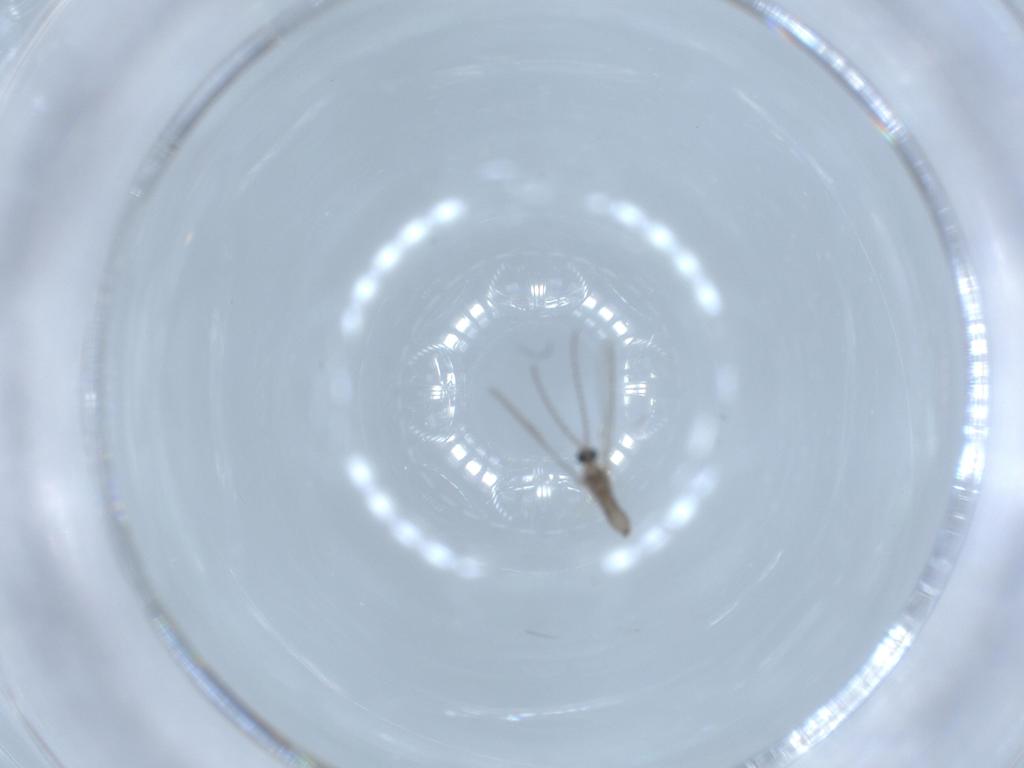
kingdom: Animalia
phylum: Arthropoda
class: Insecta
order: Diptera
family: Cecidomyiidae
